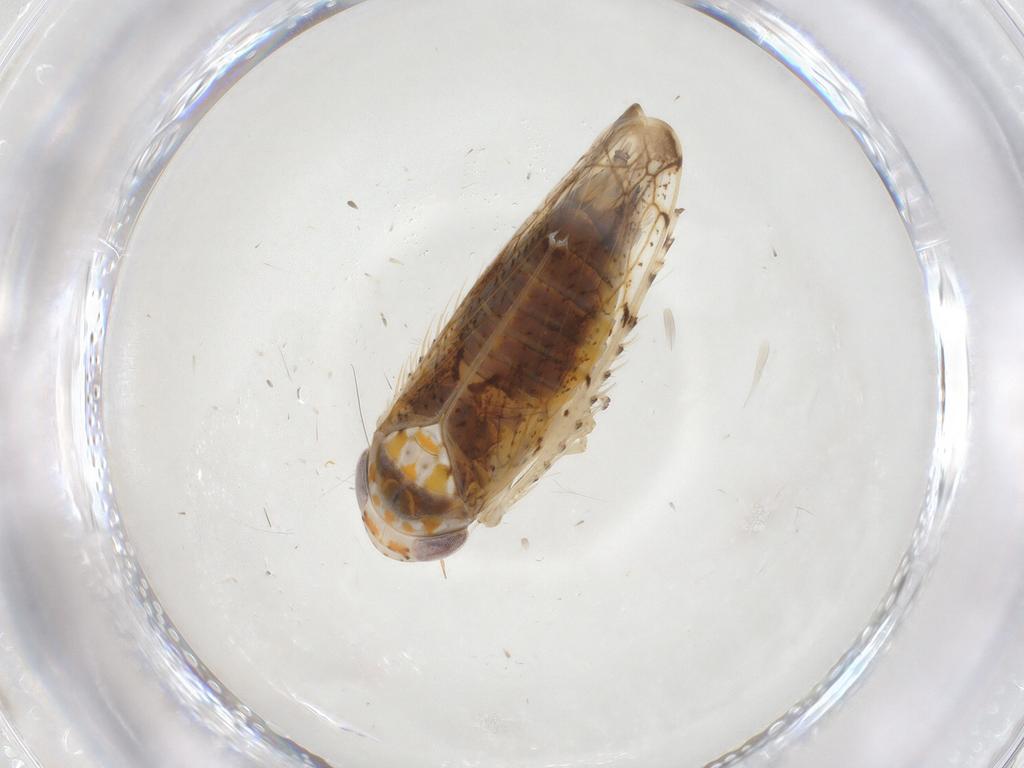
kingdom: Animalia
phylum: Arthropoda
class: Insecta
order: Hemiptera
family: Cicadellidae
